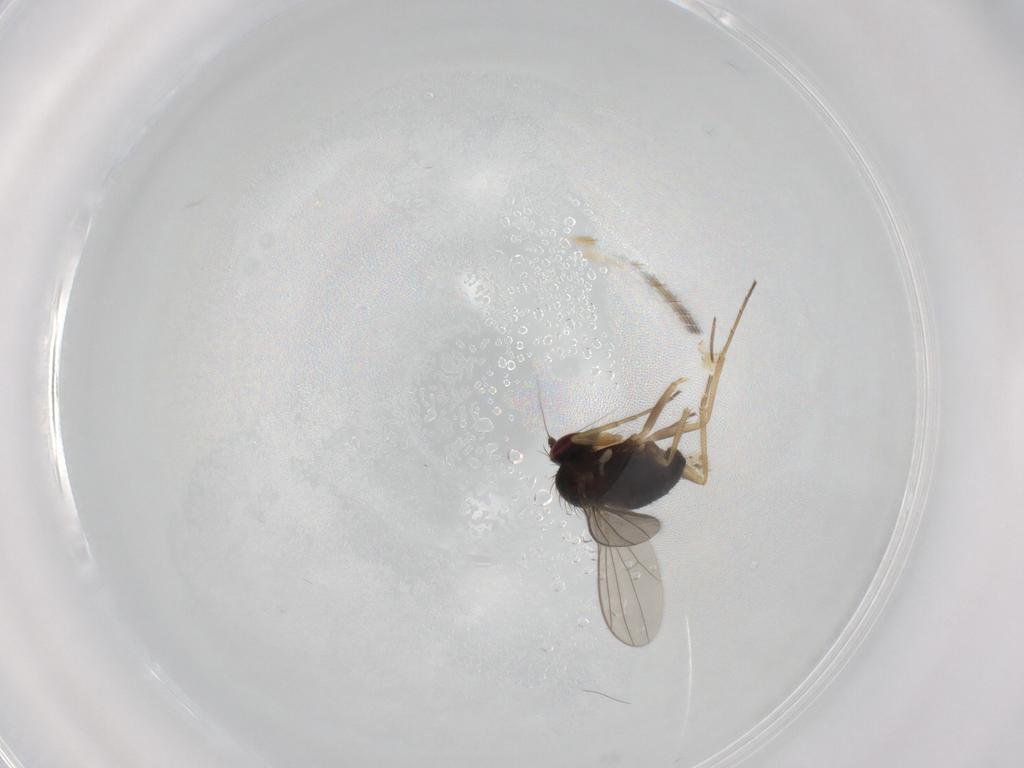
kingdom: Animalia
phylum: Arthropoda
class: Insecta
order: Diptera
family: Dolichopodidae
